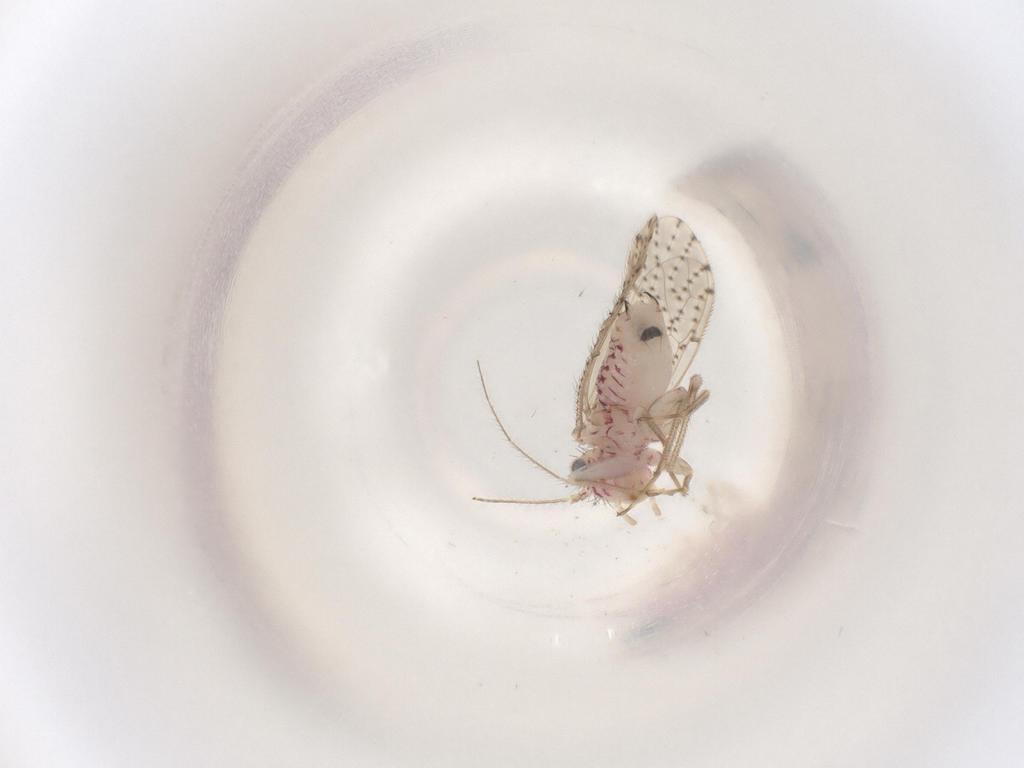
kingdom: Animalia
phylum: Arthropoda
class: Insecta
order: Psocodea
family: Philotarsidae
